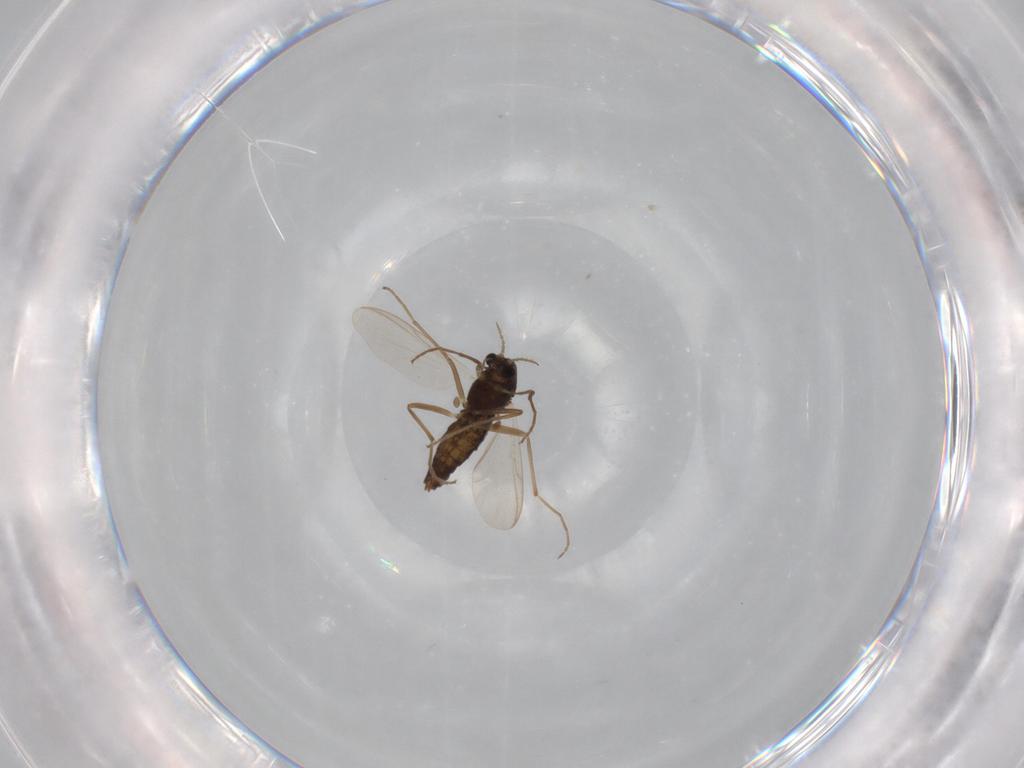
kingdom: Animalia
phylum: Arthropoda
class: Insecta
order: Diptera
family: Chironomidae
